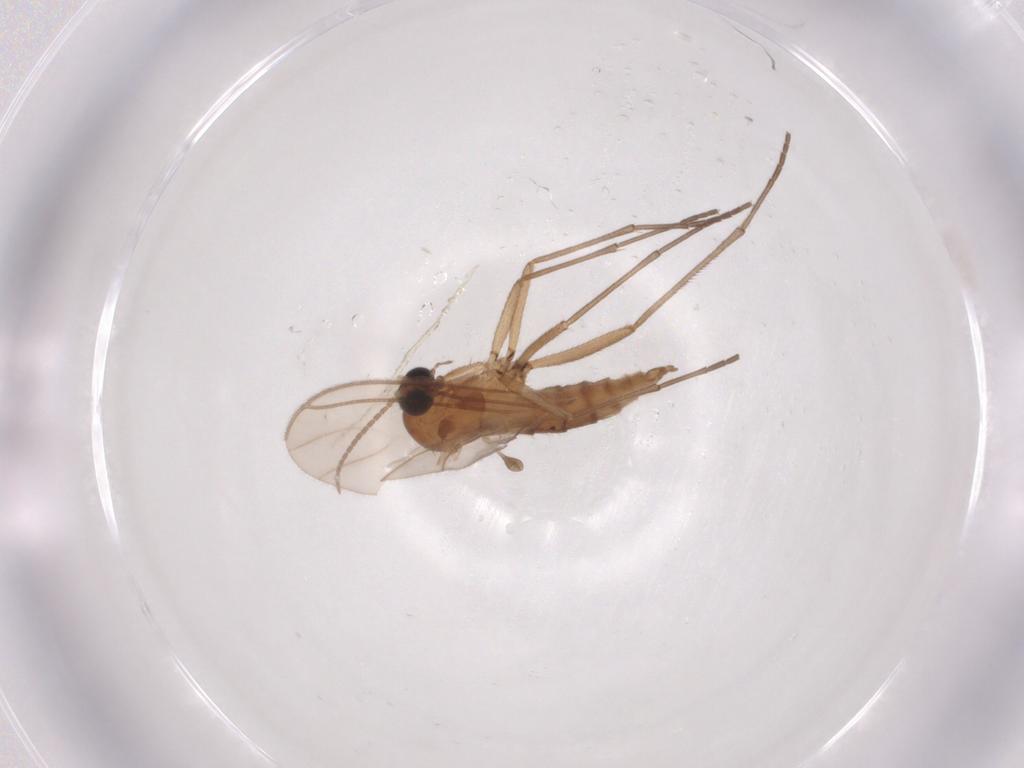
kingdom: Animalia
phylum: Arthropoda
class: Insecta
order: Diptera
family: Sciaridae
